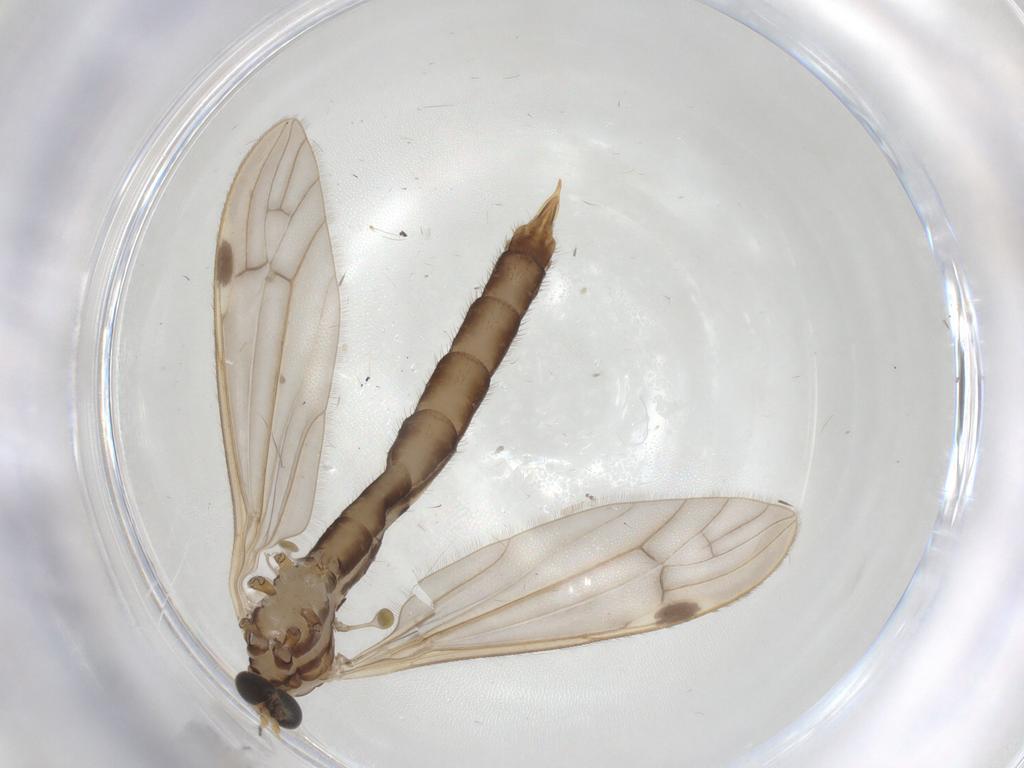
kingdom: Animalia
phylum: Arthropoda
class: Insecta
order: Diptera
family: Limoniidae
